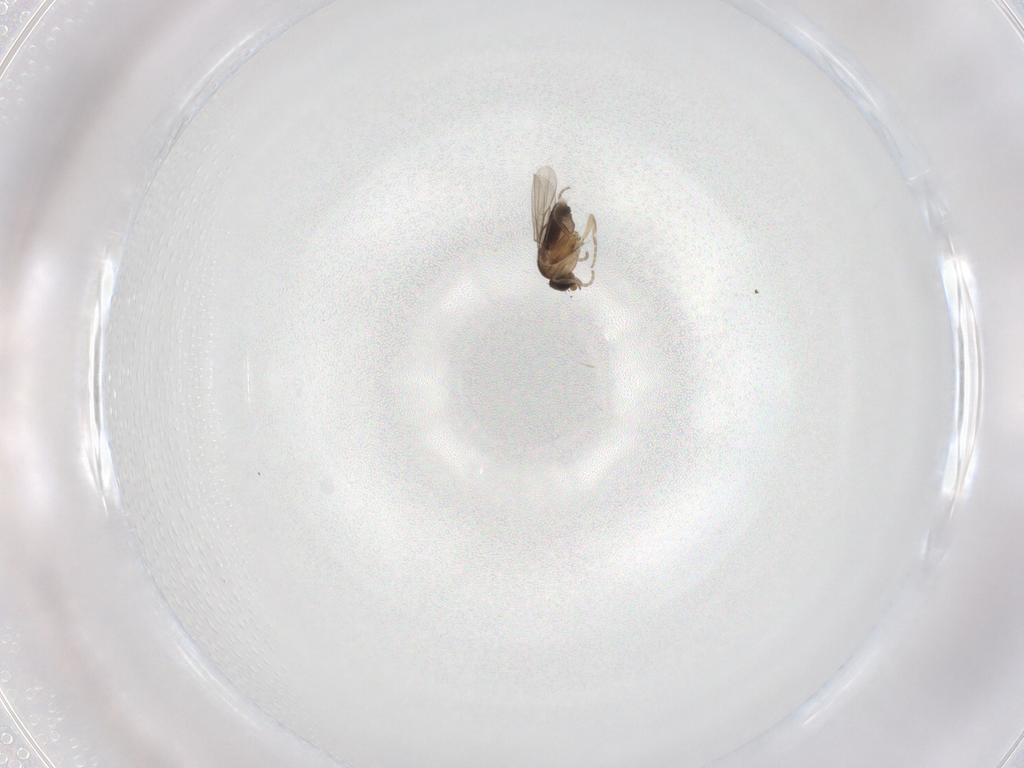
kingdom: Animalia
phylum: Arthropoda
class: Insecta
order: Diptera
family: Phoridae
